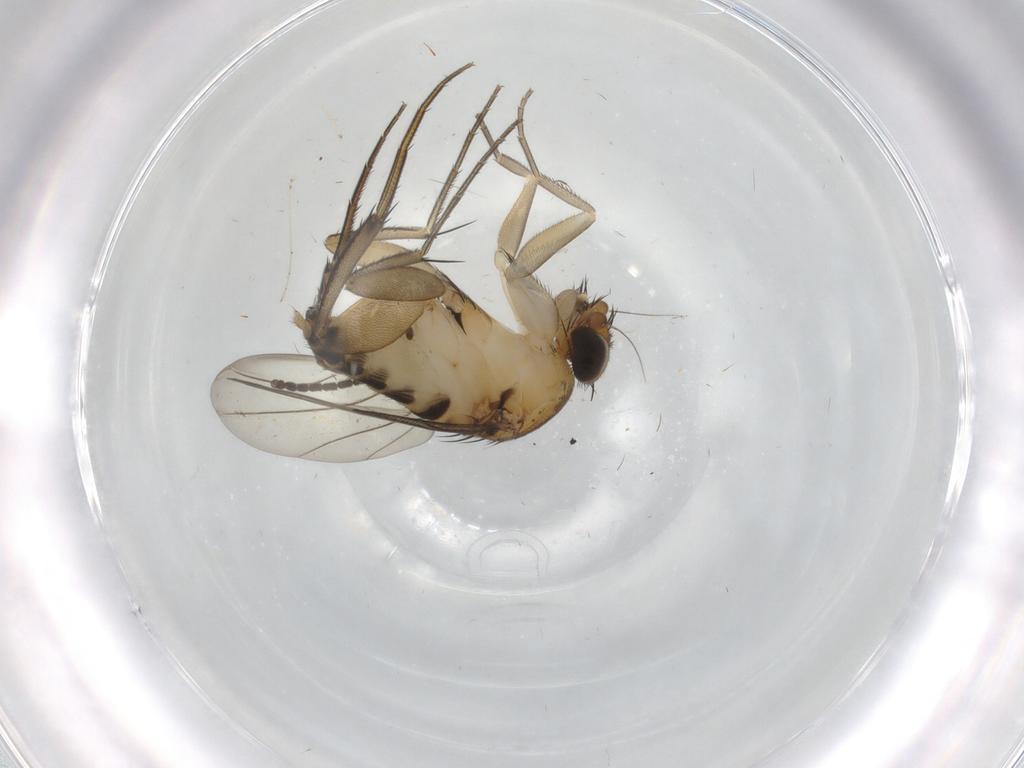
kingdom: Animalia
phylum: Arthropoda
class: Insecta
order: Diptera
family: Phoridae
